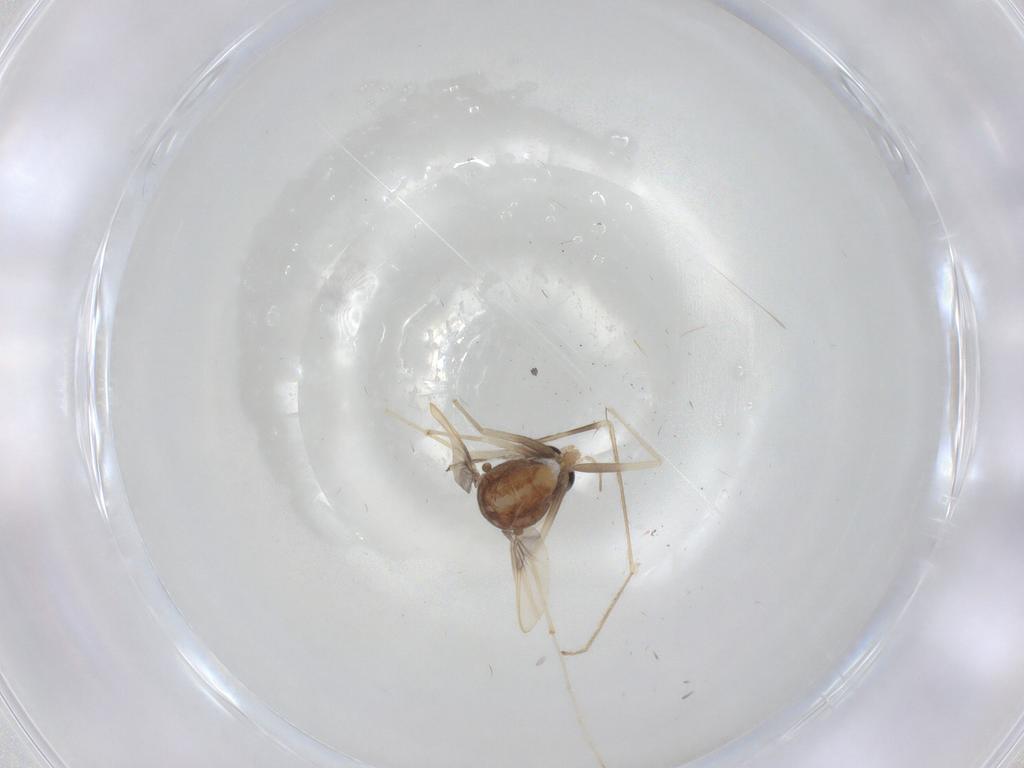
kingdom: Animalia
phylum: Arthropoda
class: Insecta
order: Diptera
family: Chironomidae
